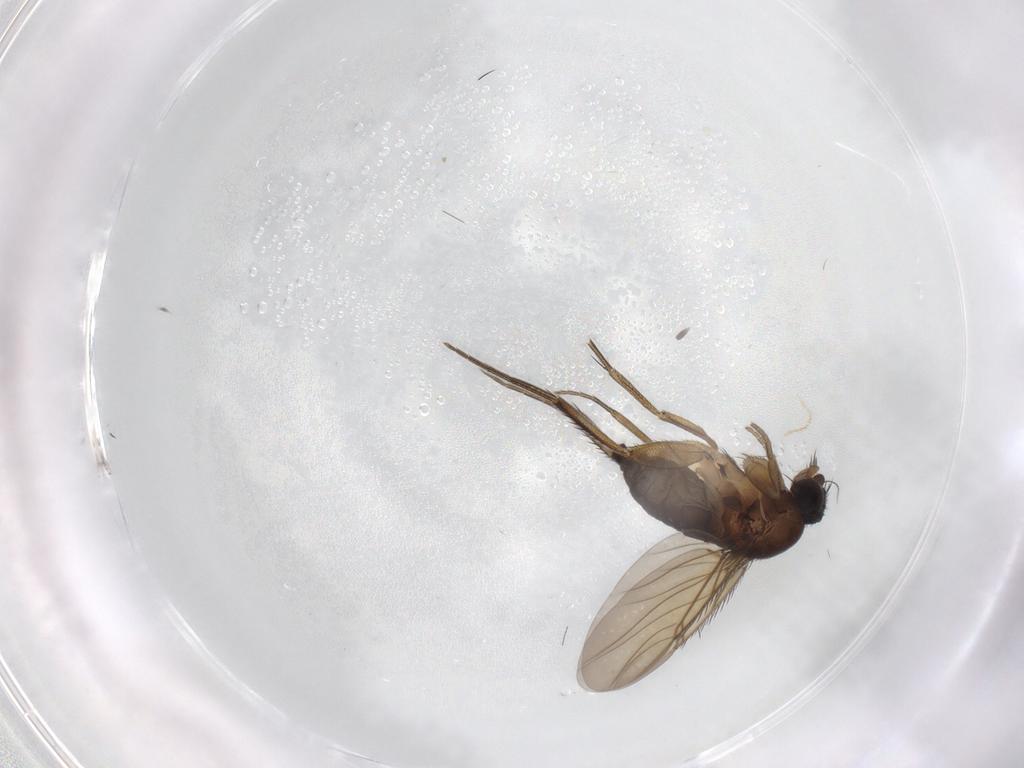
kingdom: Animalia
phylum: Arthropoda
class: Insecta
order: Diptera
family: Phoridae
